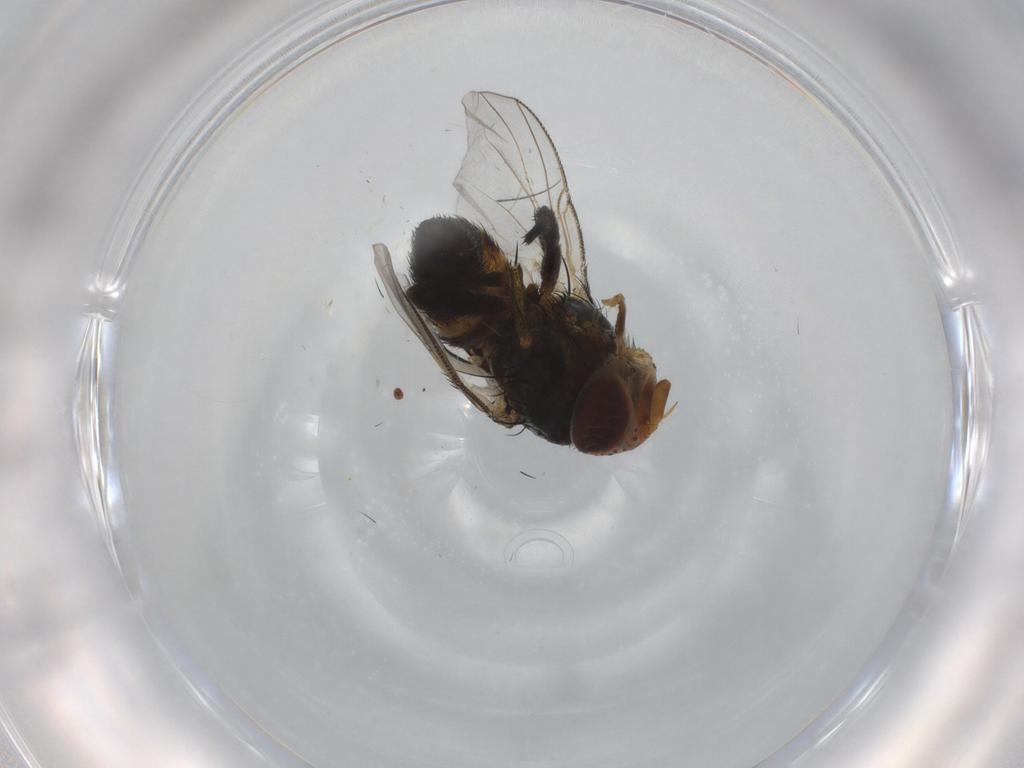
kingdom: Animalia
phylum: Arthropoda
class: Insecta
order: Diptera
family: Tachinidae
